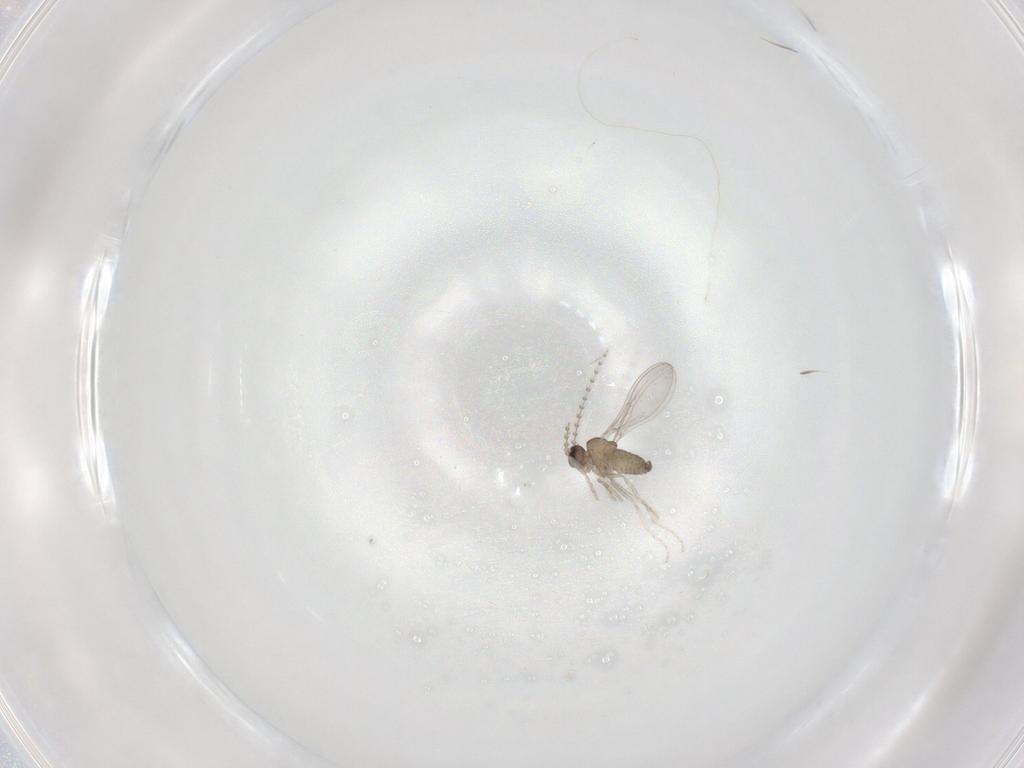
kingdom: Animalia
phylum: Arthropoda
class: Insecta
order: Diptera
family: Cecidomyiidae
